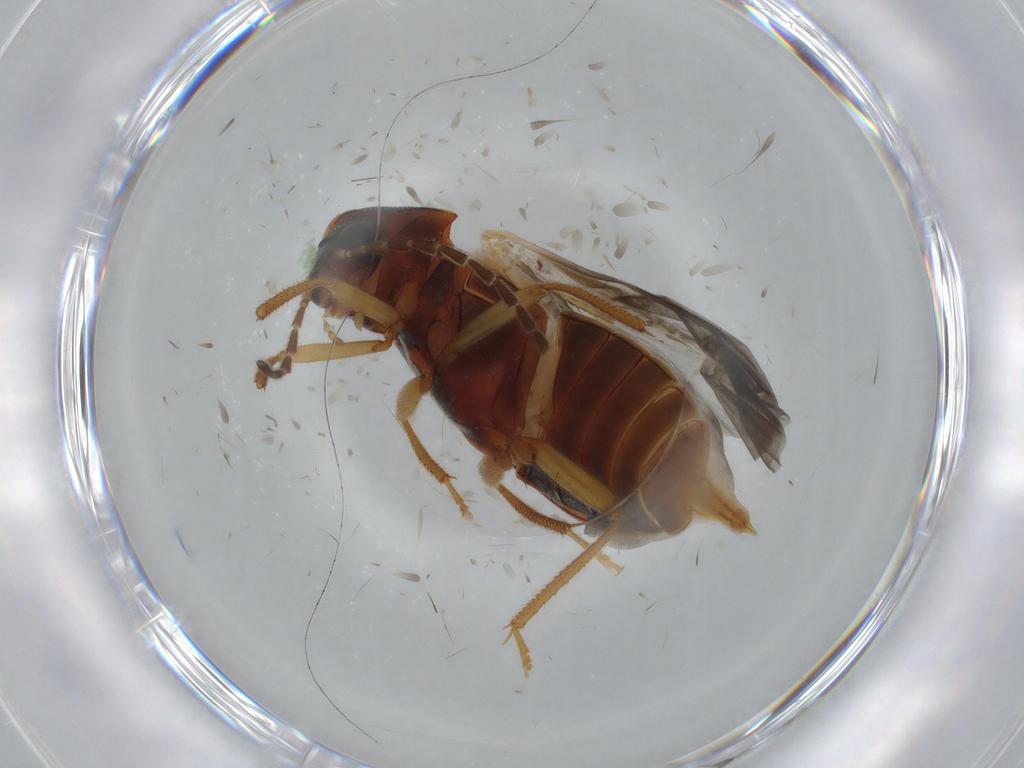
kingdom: Animalia
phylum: Arthropoda
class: Insecta
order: Coleoptera
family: Ptilodactylidae
